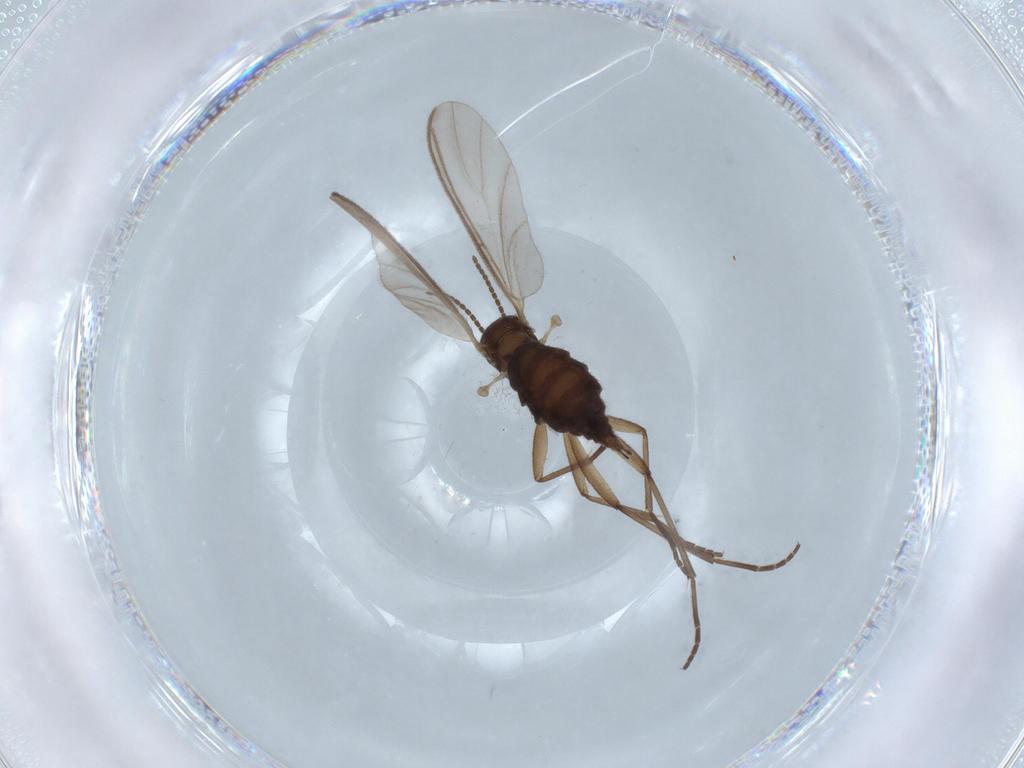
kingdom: Animalia
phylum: Arthropoda
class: Insecta
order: Diptera
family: Sciaridae
